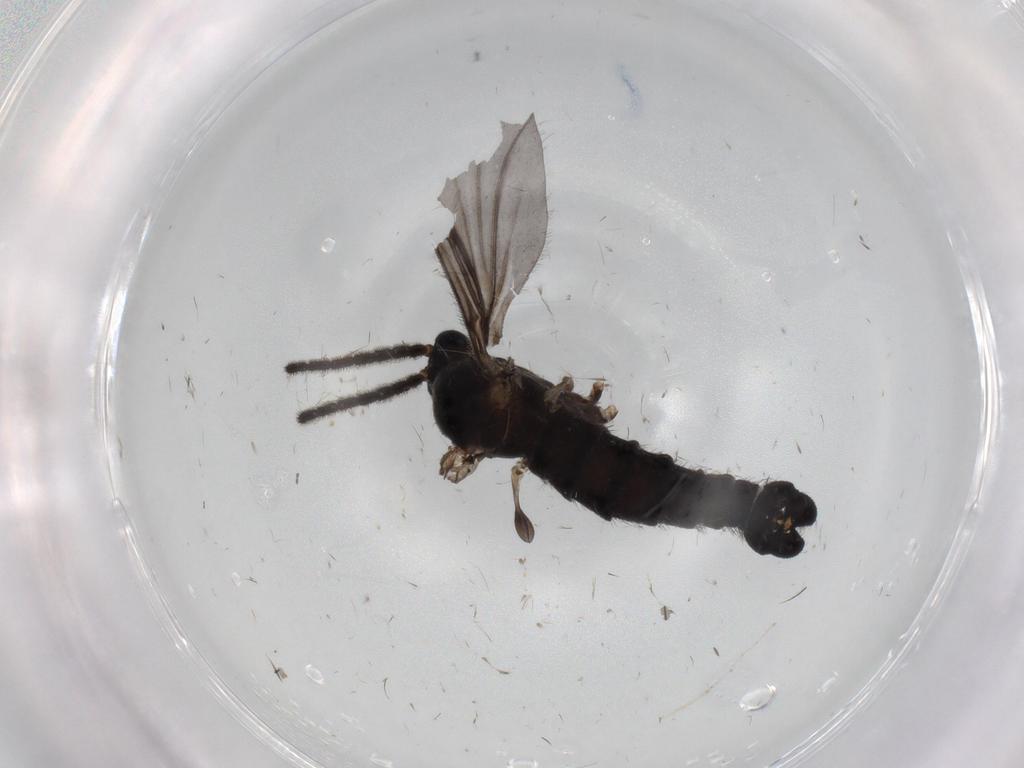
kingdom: Animalia
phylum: Arthropoda
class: Insecta
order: Diptera
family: Sciaridae
